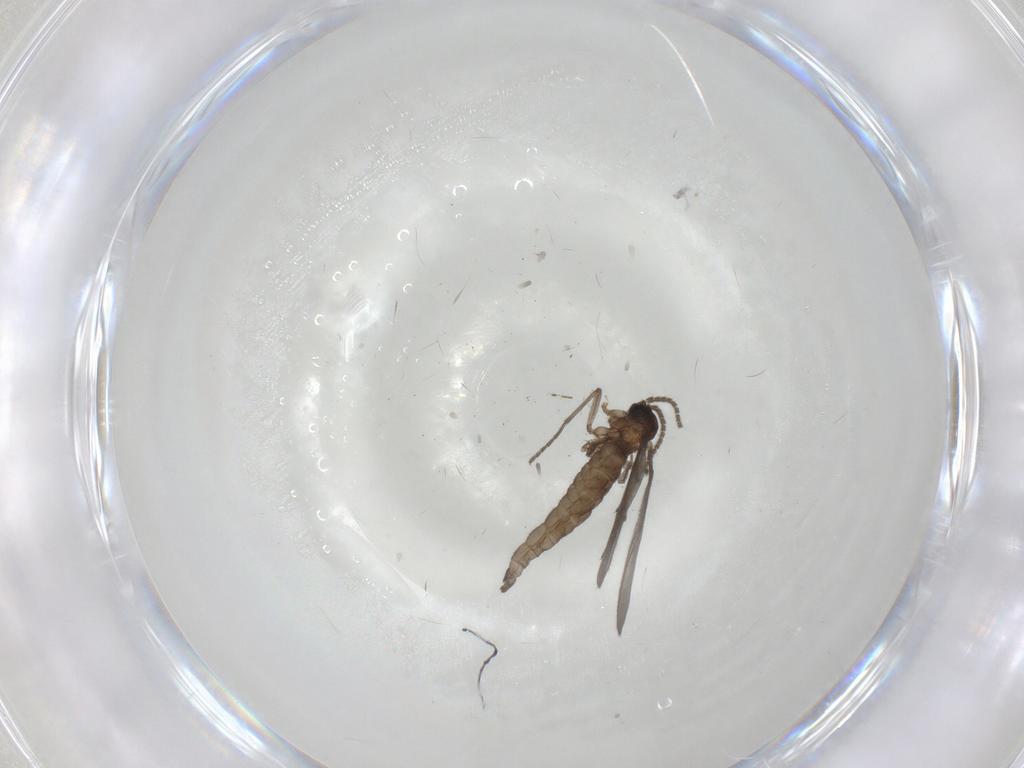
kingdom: Animalia
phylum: Arthropoda
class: Insecta
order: Diptera
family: Sciaridae
